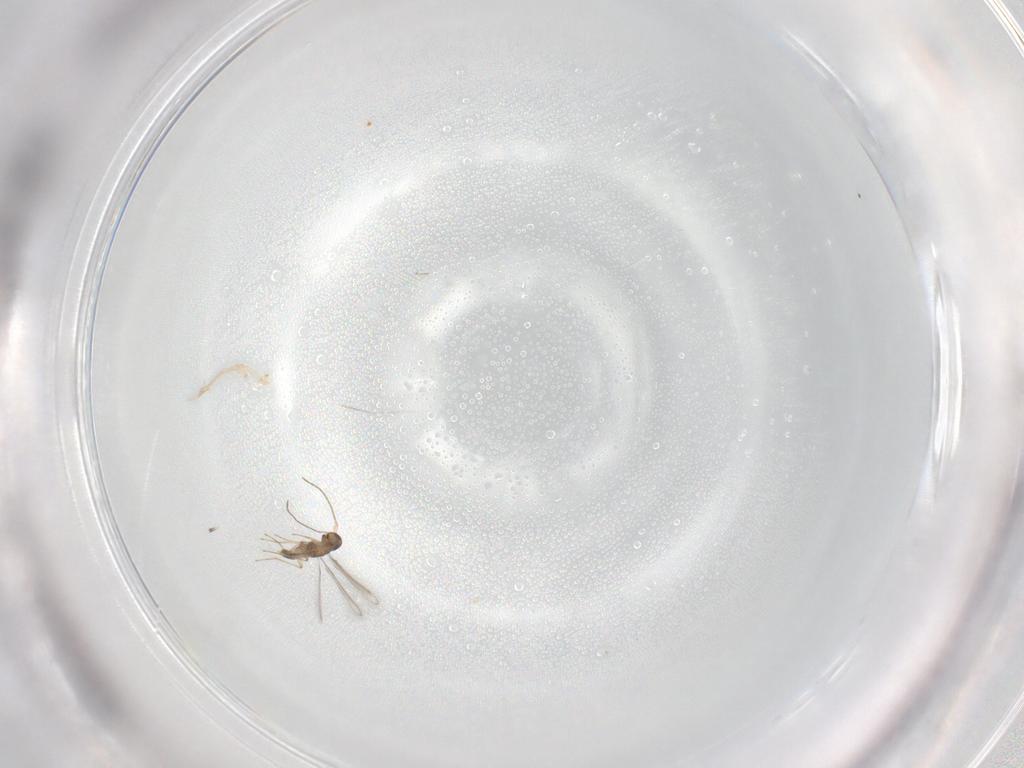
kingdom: Animalia
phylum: Arthropoda
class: Insecta
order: Hymenoptera
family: Mymaridae
